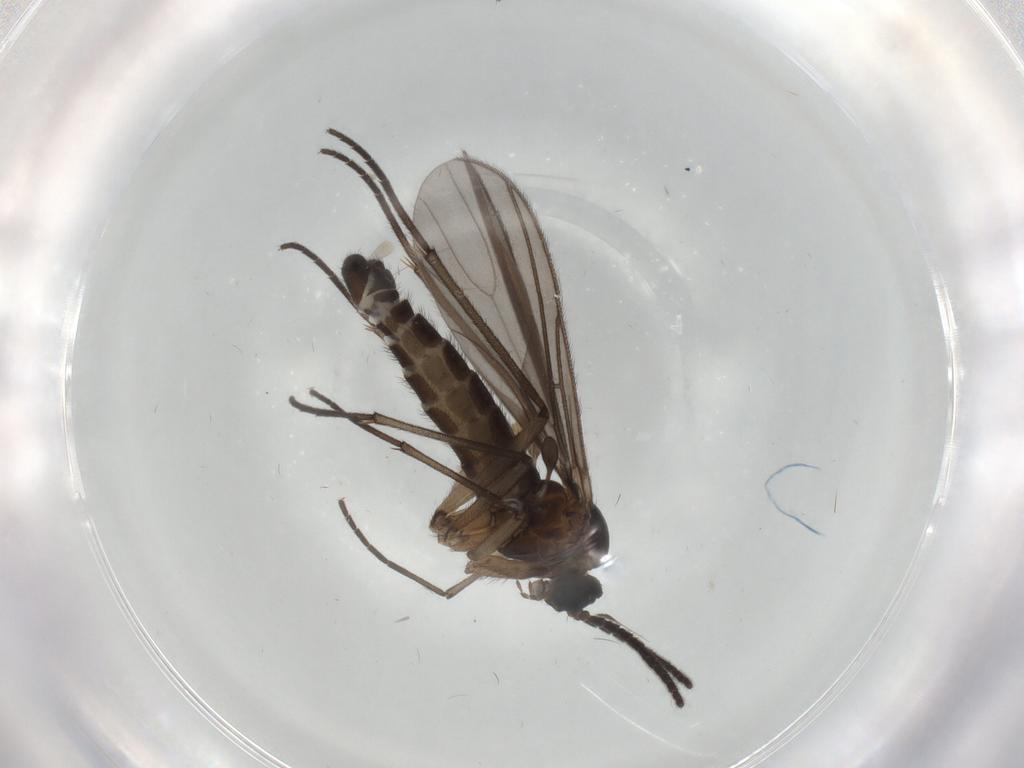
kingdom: Animalia
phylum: Arthropoda
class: Insecta
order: Diptera
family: Sciaridae
